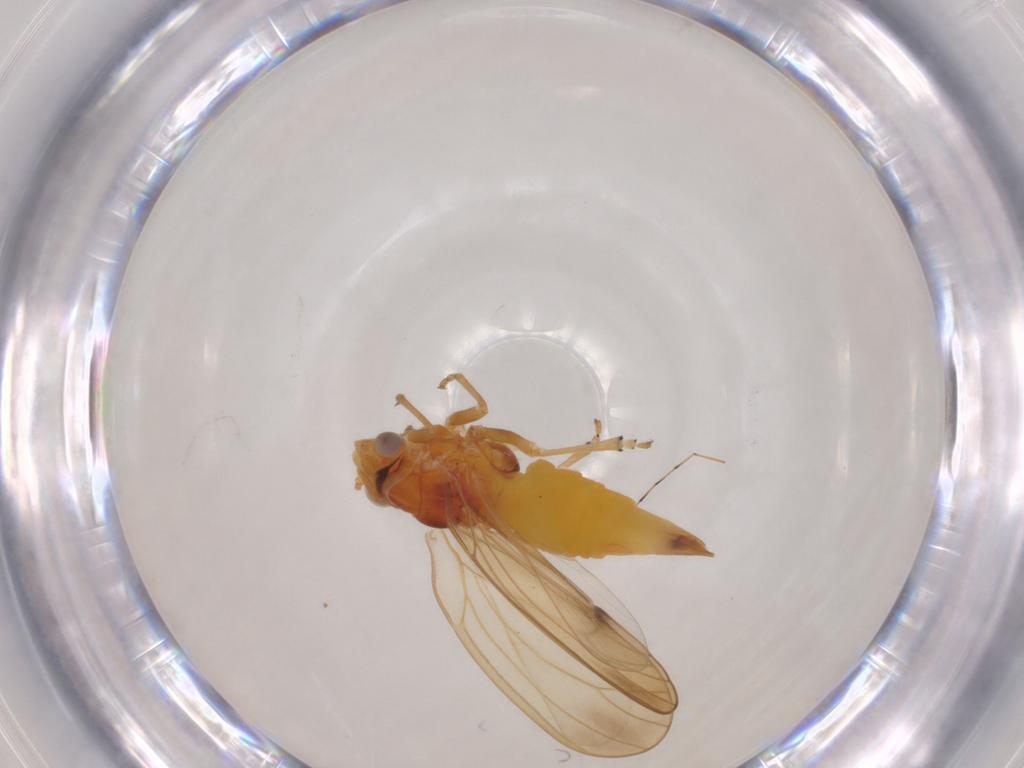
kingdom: Animalia
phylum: Arthropoda
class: Insecta
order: Hemiptera
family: Psylloidea_incertae_sedis
